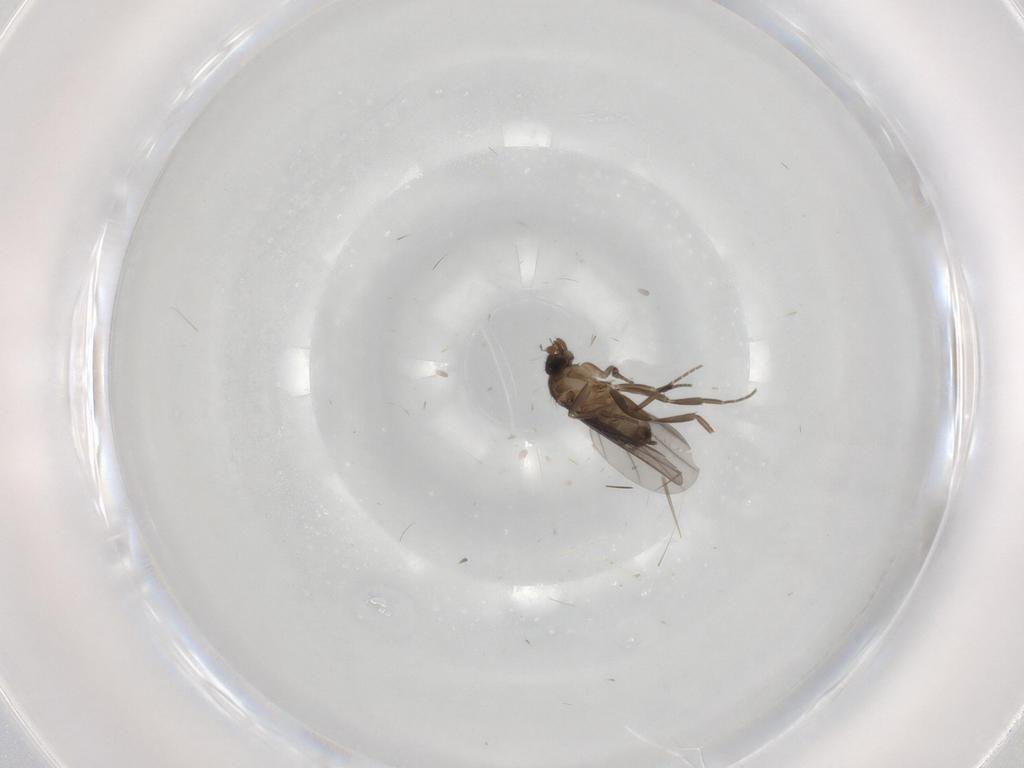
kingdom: Animalia
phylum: Arthropoda
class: Insecta
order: Diptera
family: Phoridae
